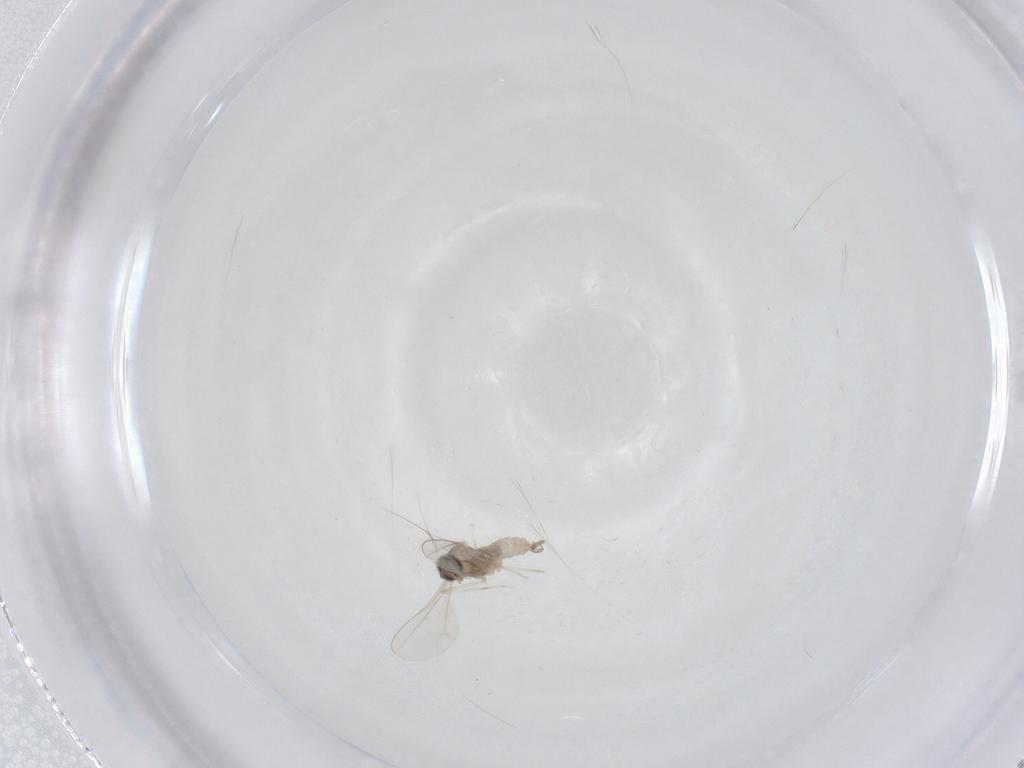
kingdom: Animalia
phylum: Arthropoda
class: Insecta
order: Diptera
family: Cecidomyiidae
